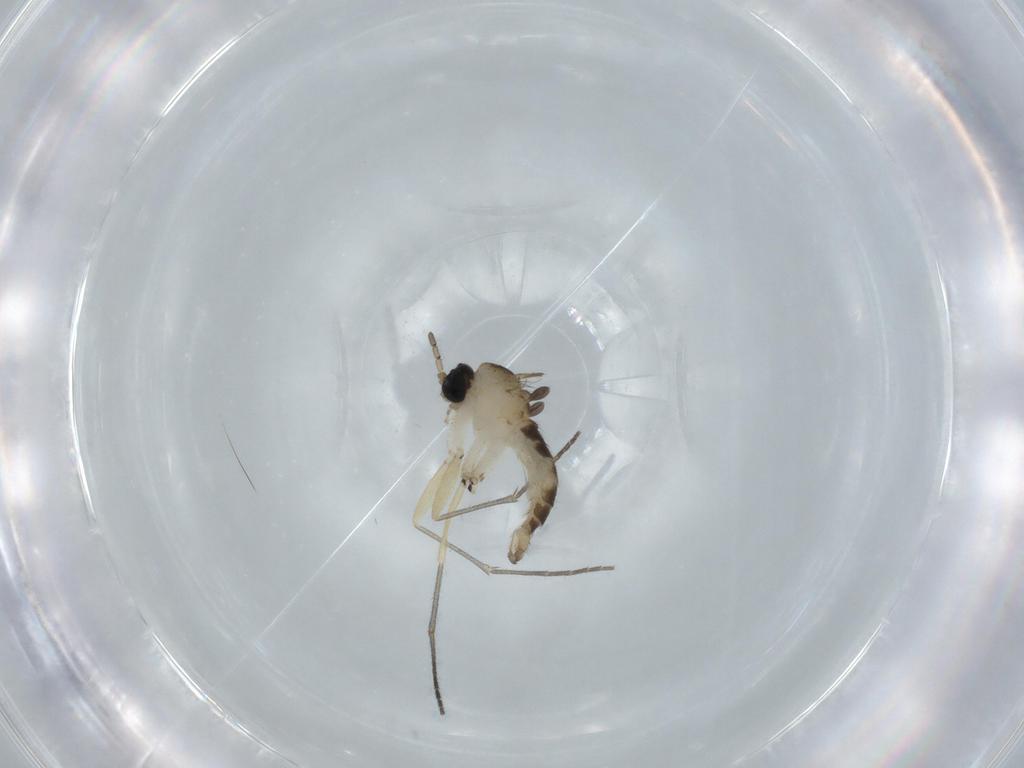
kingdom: Animalia
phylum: Arthropoda
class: Insecta
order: Diptera
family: Sciaridae
